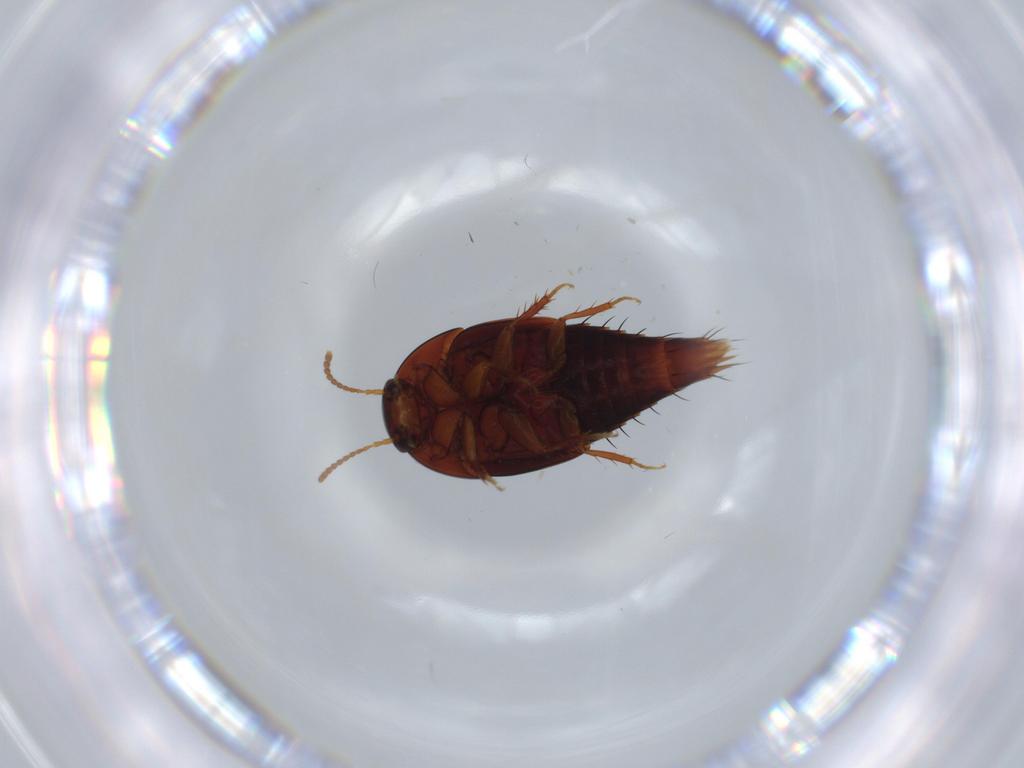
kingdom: Animalia
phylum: Arthropoda
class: Insecta
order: Coleoptera
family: Staphylinidae
